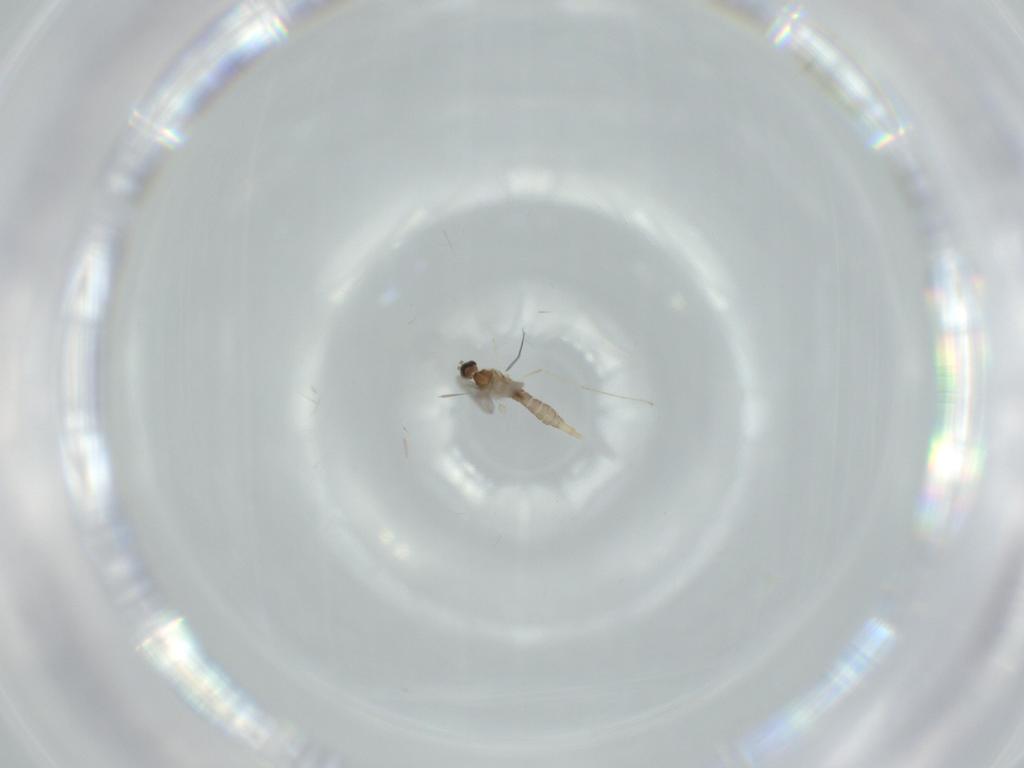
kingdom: Animalia
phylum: Arthropoda
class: Insecta
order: Diptera
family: Cecidomyiidae
